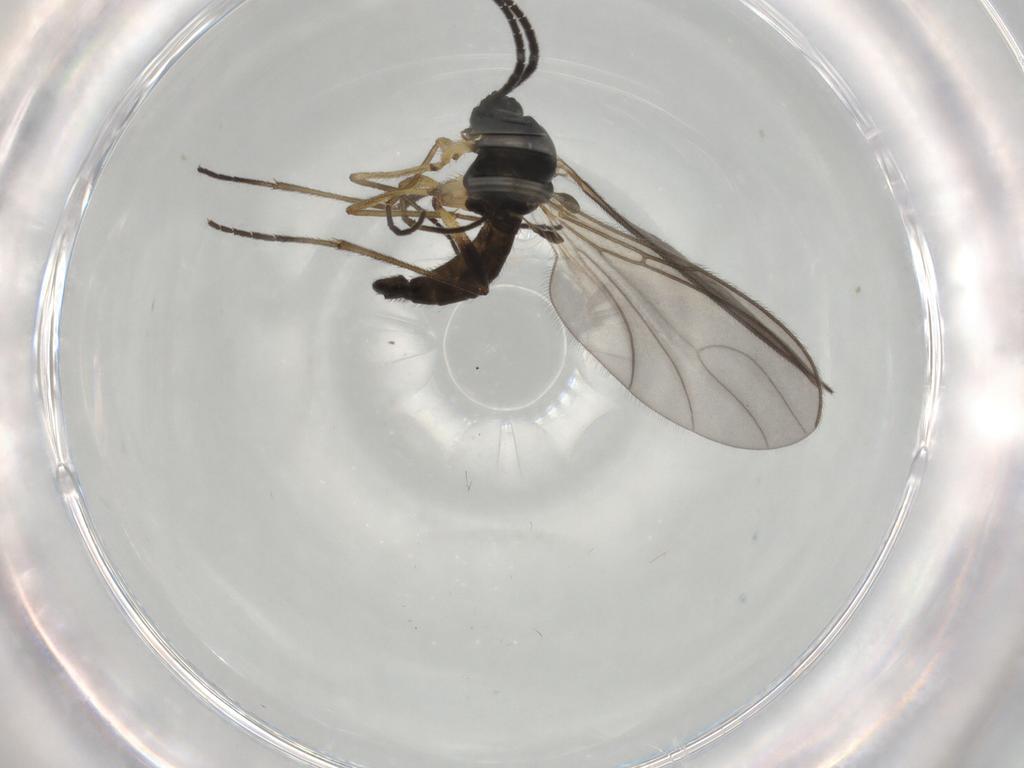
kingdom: Animalia
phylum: Arthropoda
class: Insecta
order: Diptera
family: Sciaridae
